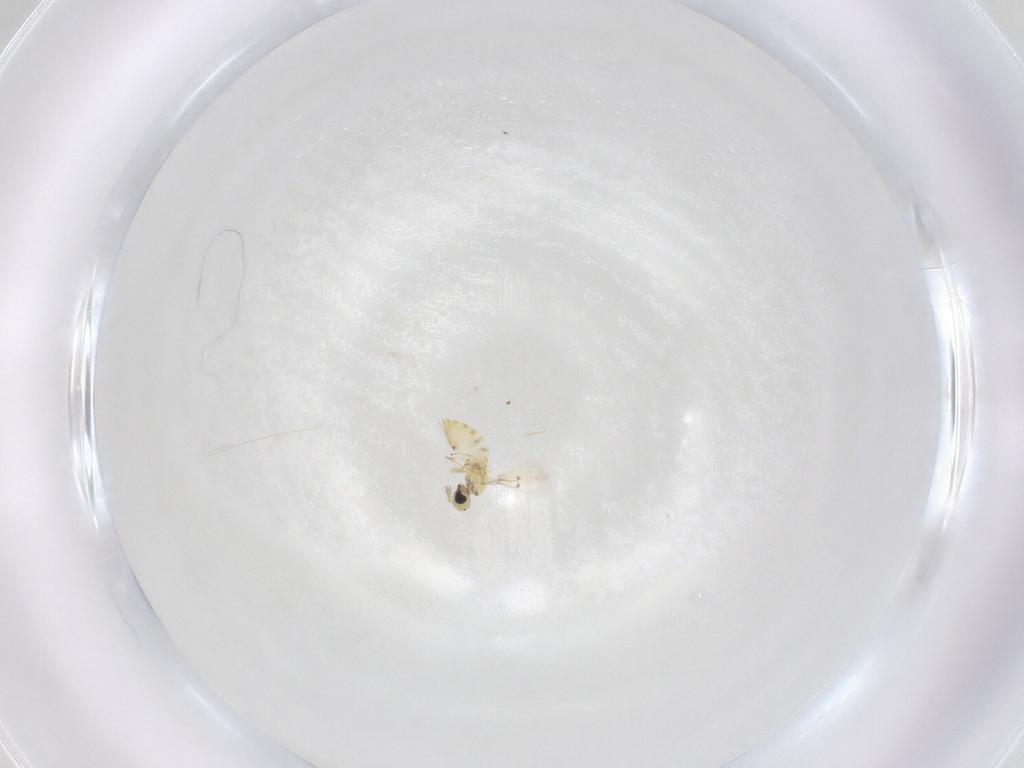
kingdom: Animalia
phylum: Arthropoda
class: Insecta
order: Hymenoptera
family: Trichogrammatidae
